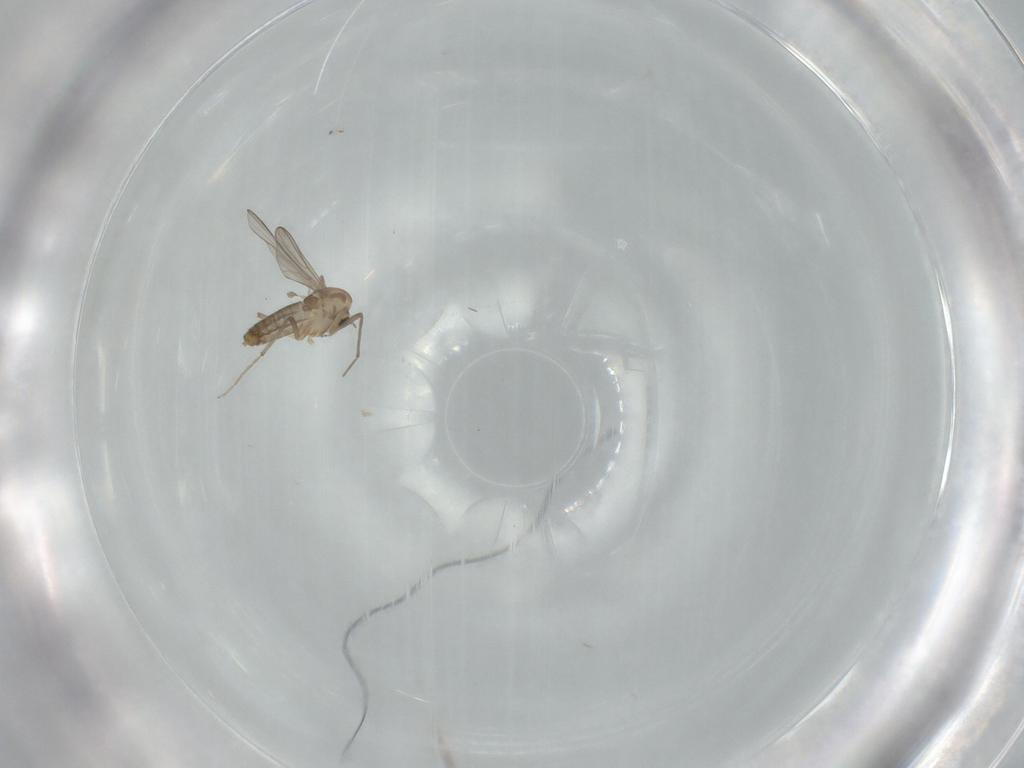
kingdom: Animalia
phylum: Arthropoda
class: Insecta
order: Diptera
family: Chironomidae
